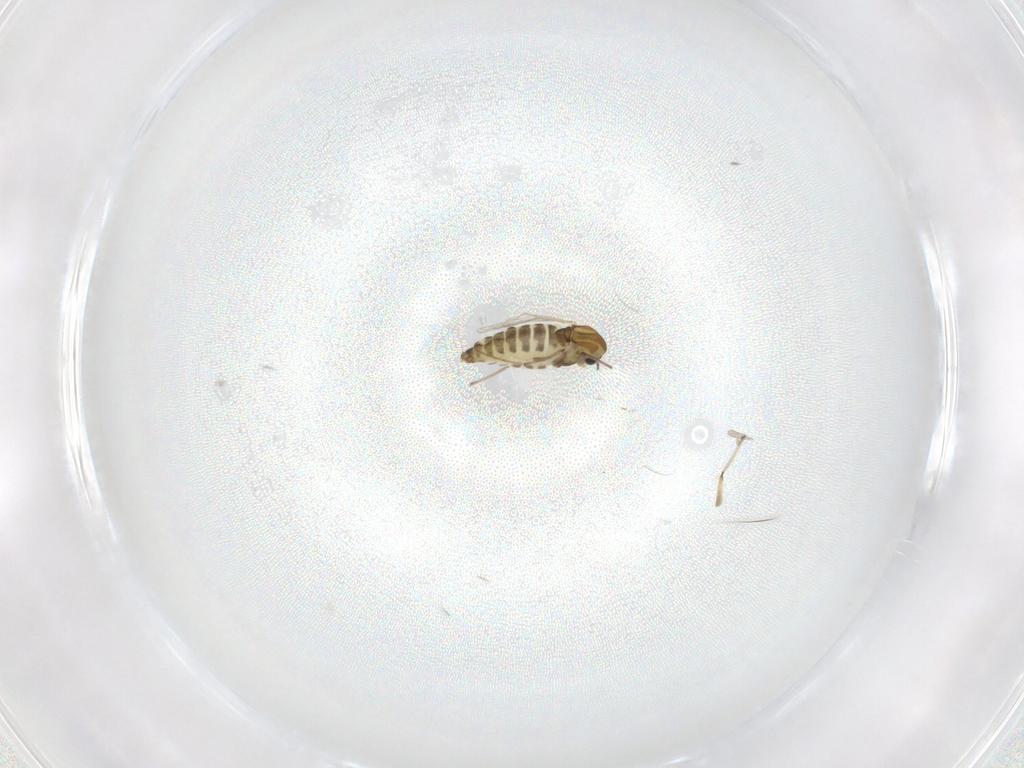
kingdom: Animalia
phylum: Arthropoda
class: Insecta
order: Diptera
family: Chironomidae
